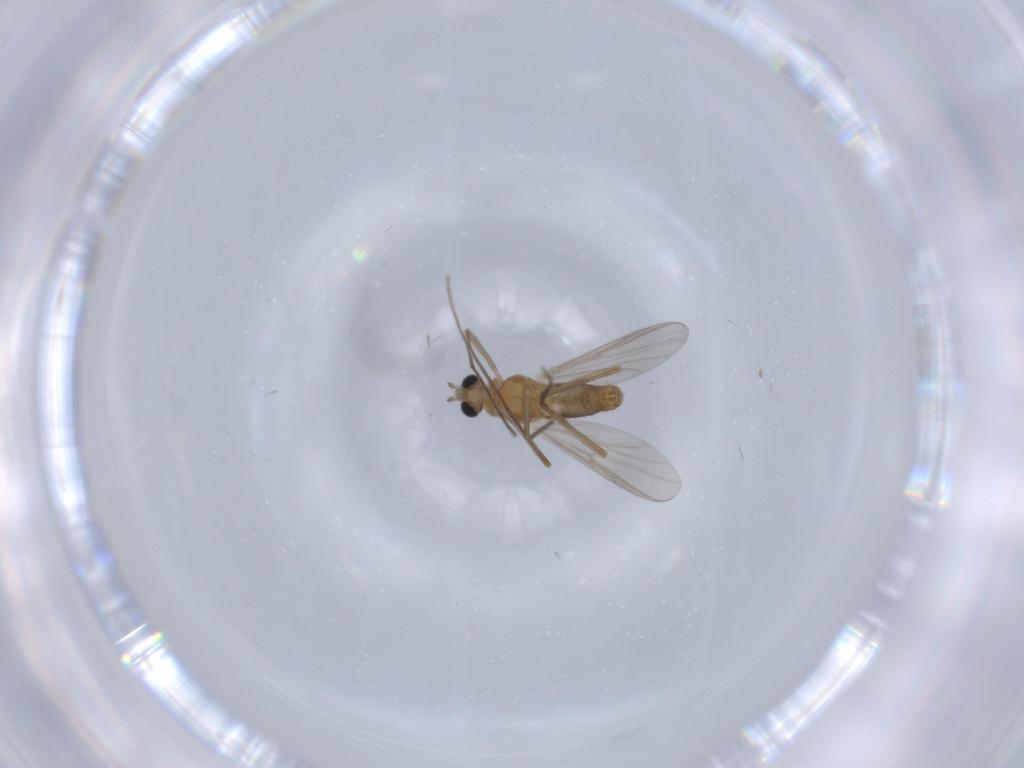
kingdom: Animalia
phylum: Arthropoda
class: Insecta
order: Diptera
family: Chironomidae
